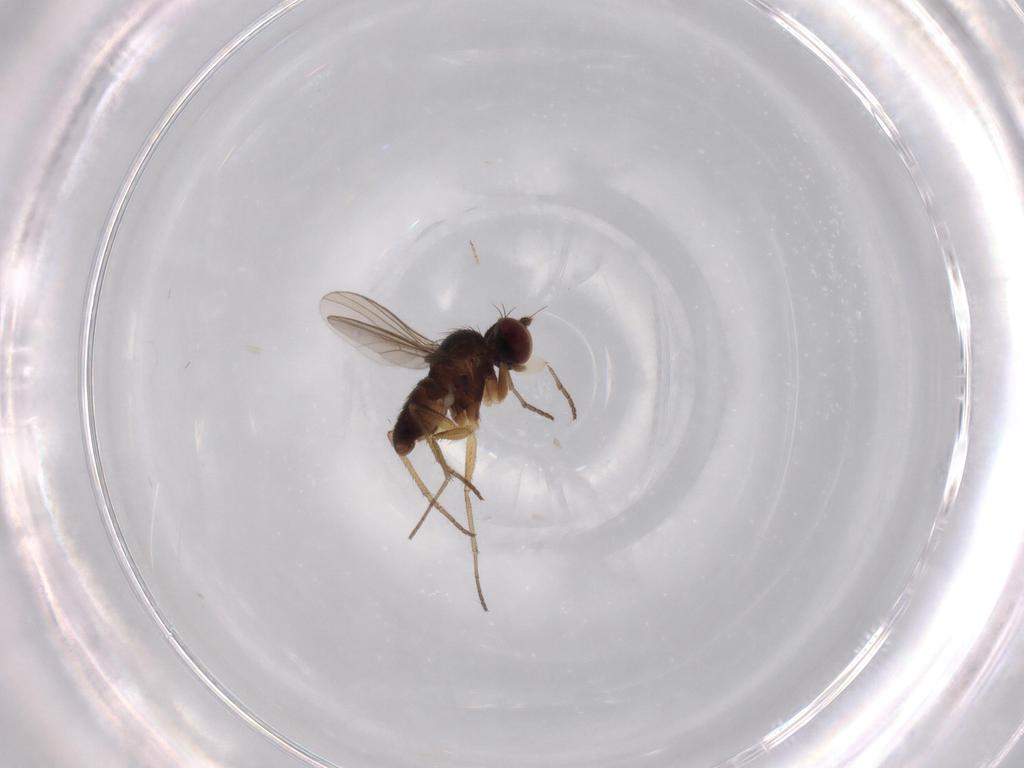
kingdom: Animalia
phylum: Arthropoda
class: Insecta
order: Diptera
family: Dolichopodidae
